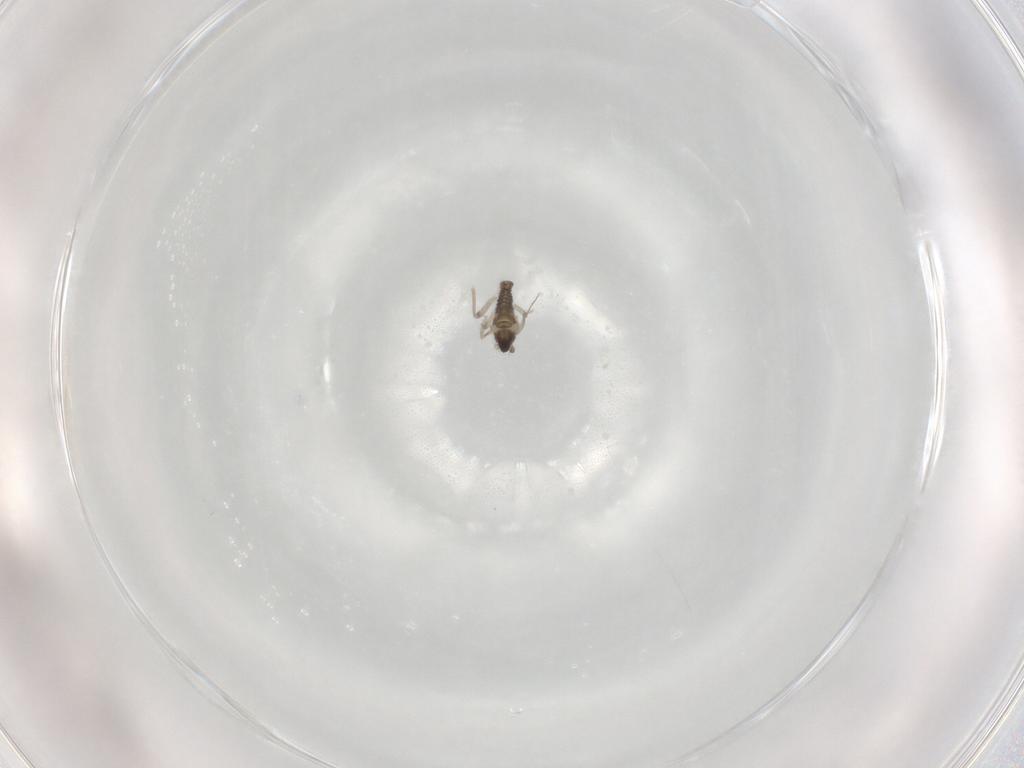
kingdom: Animalia
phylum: Arthropoda
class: Insecta
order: Diptera
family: Cecidomyiidae
